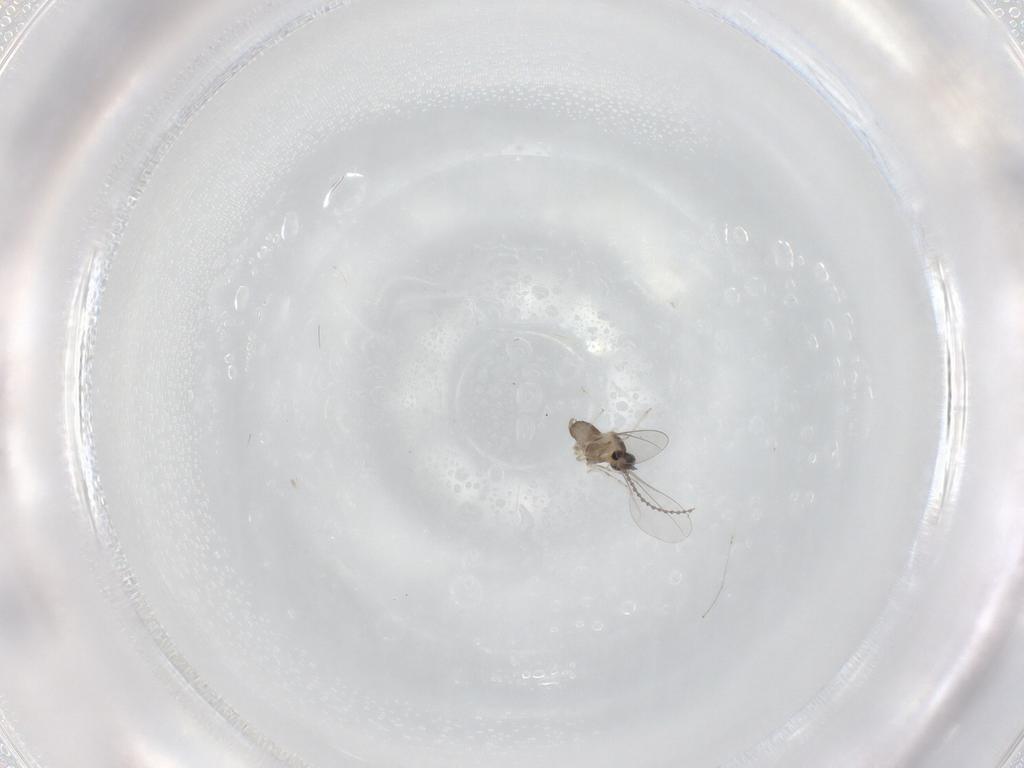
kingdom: Animalia
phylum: Arthropoda
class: Insecta
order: Diptera
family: Cecidomyiidae
